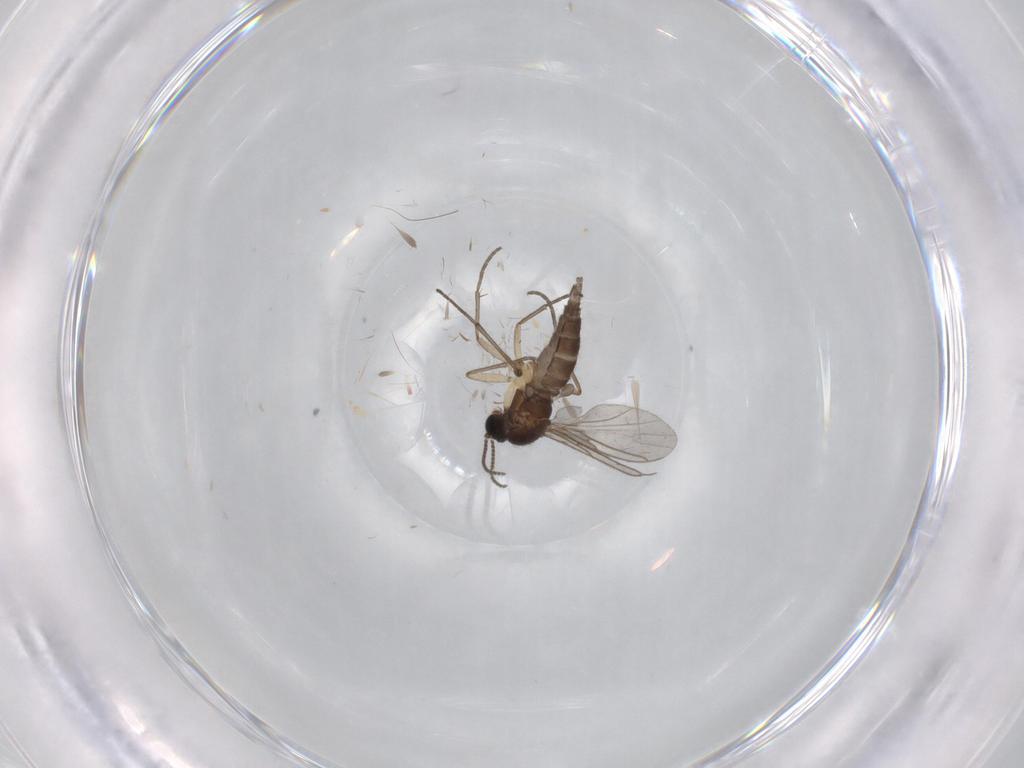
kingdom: Animalia
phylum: Arthropoda
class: Insecta
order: Diptera
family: Sciaridae
